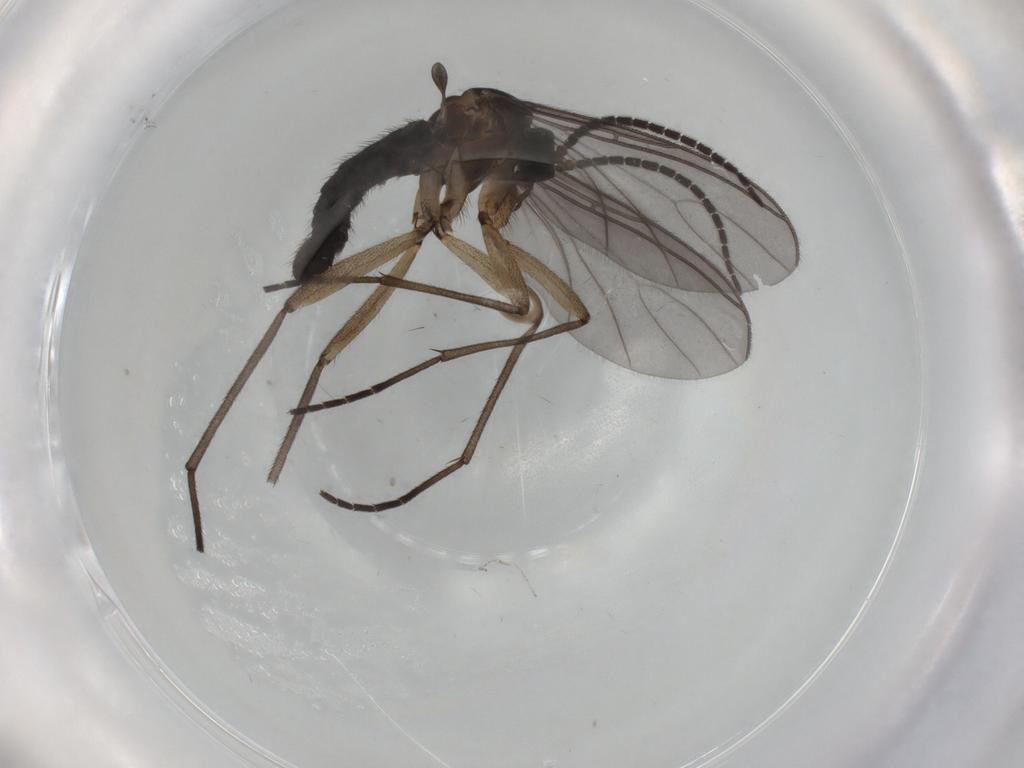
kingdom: Animalia
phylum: Arthropoda
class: Insecta
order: Diptera
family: Sciaridae
